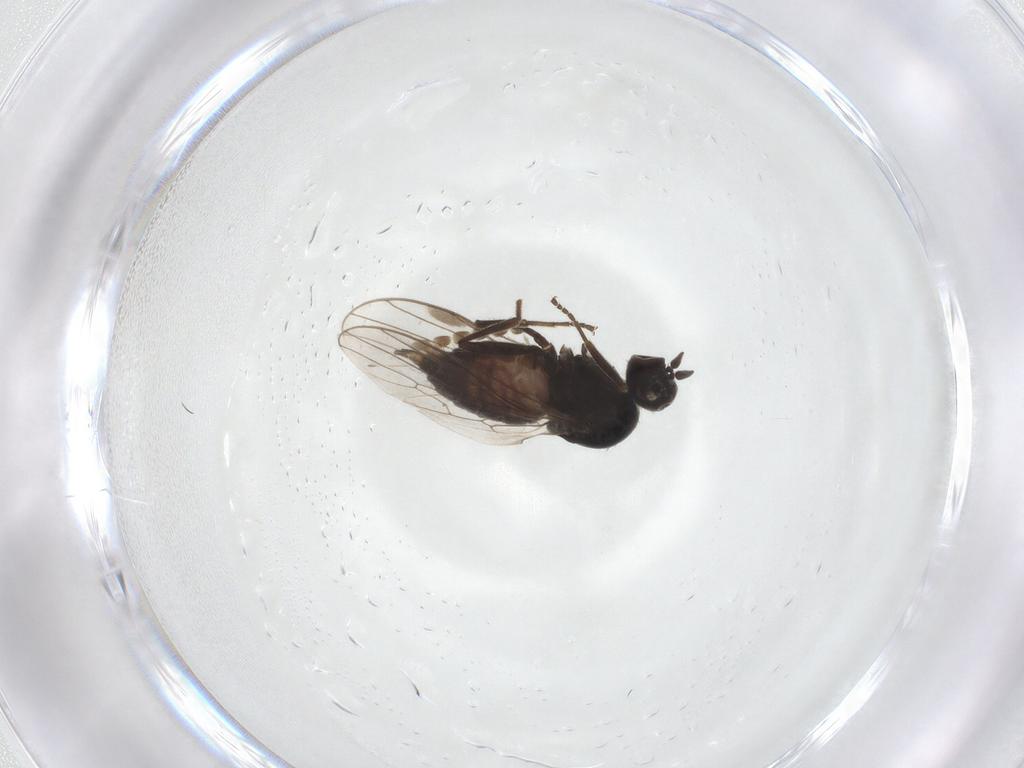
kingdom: Animalia
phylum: Arthropoda
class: Insecta
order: Diptera
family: Hybotidae
